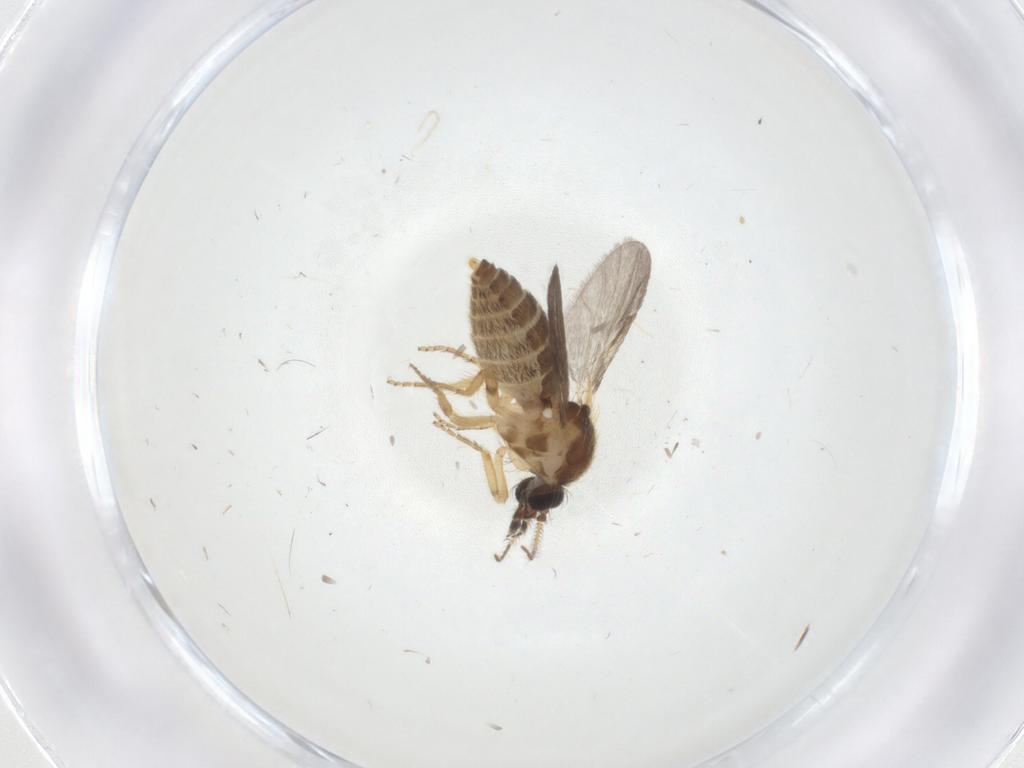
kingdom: Animalia
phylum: Arthropoda
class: Insecta
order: Diptera
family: Ceratopogonidae
